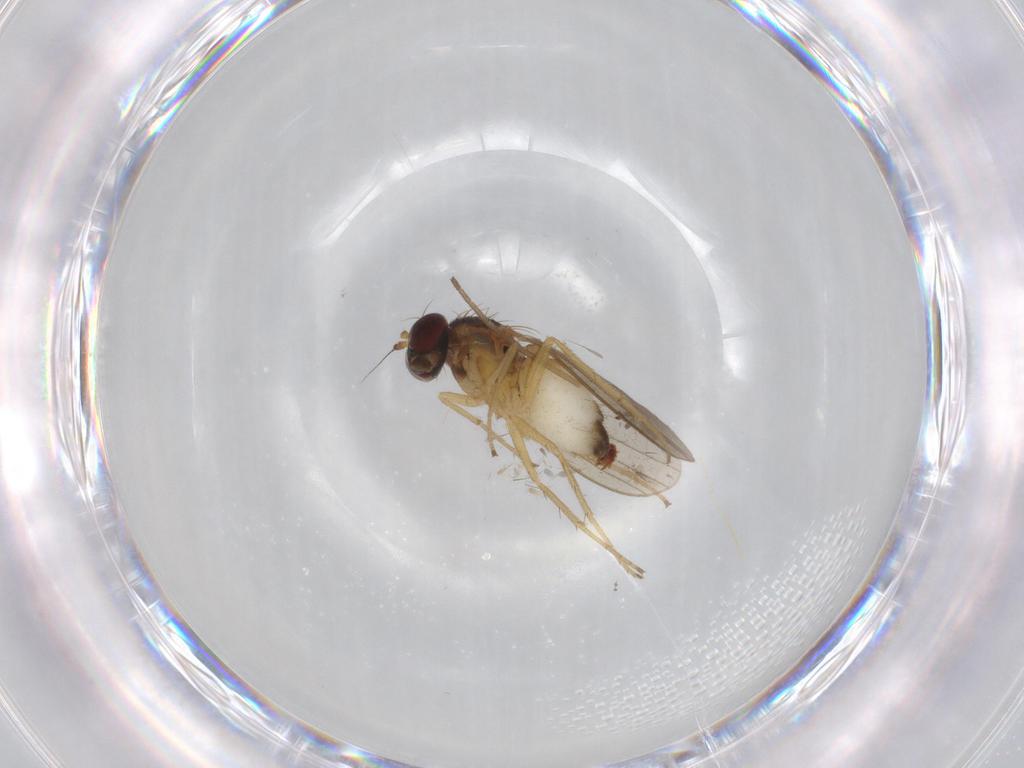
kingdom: Animalia
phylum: Arthropoda
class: Insecta
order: Diptera
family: Dolichopodidae
